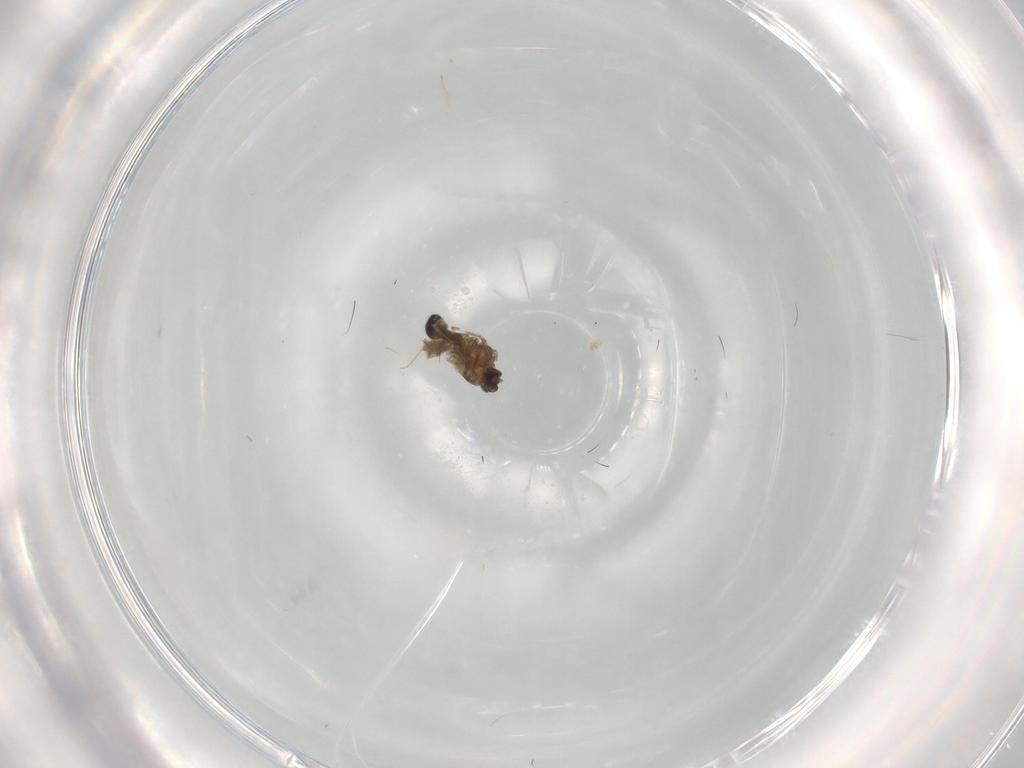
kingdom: Animalia
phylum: Arthropoda
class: Insecta
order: Diptera
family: Ceratopogonidae
